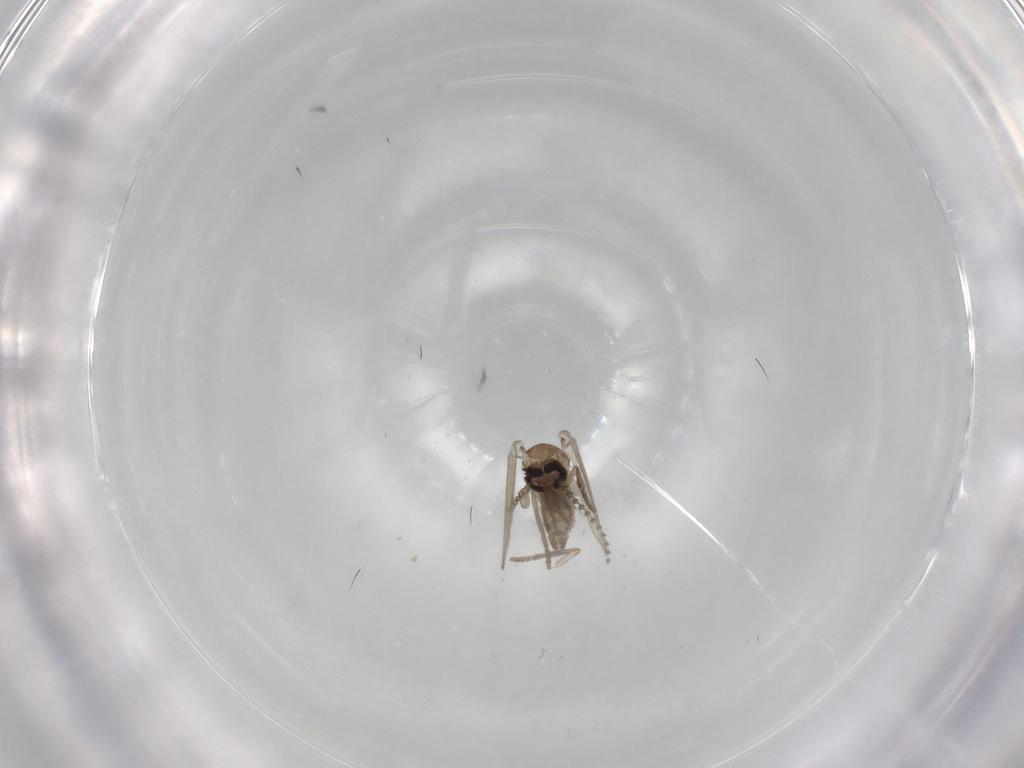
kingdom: Animalia
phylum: Arthropoda
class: Insecta
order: Diptera
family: Psychodidae
